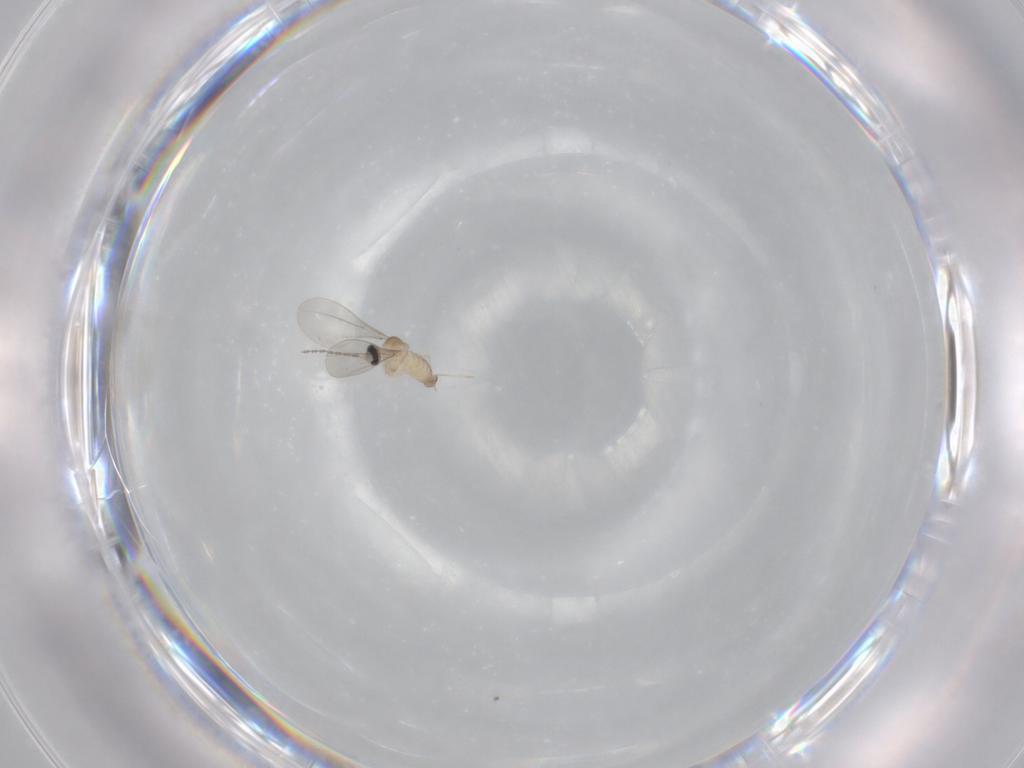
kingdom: Animalia
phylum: Arthropoda
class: Insecta
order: Diptera
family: Cecidomyiidae
